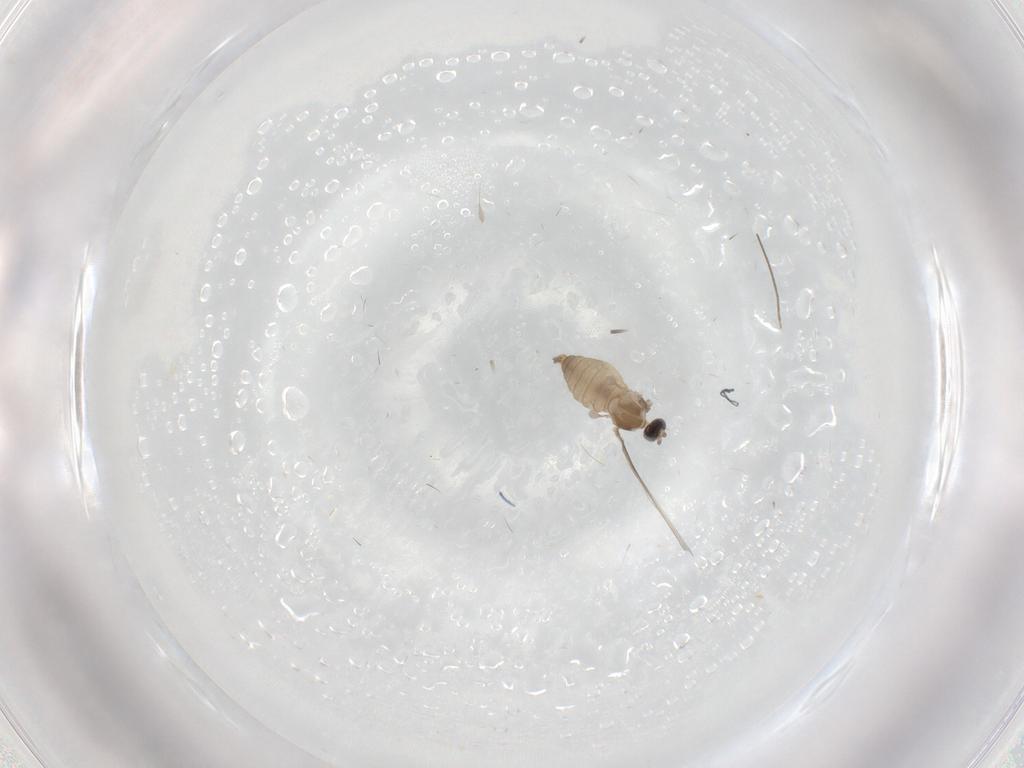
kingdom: Animalia
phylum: Arthropoda
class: Insecta
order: Diptera
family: Cecidomyiidae
